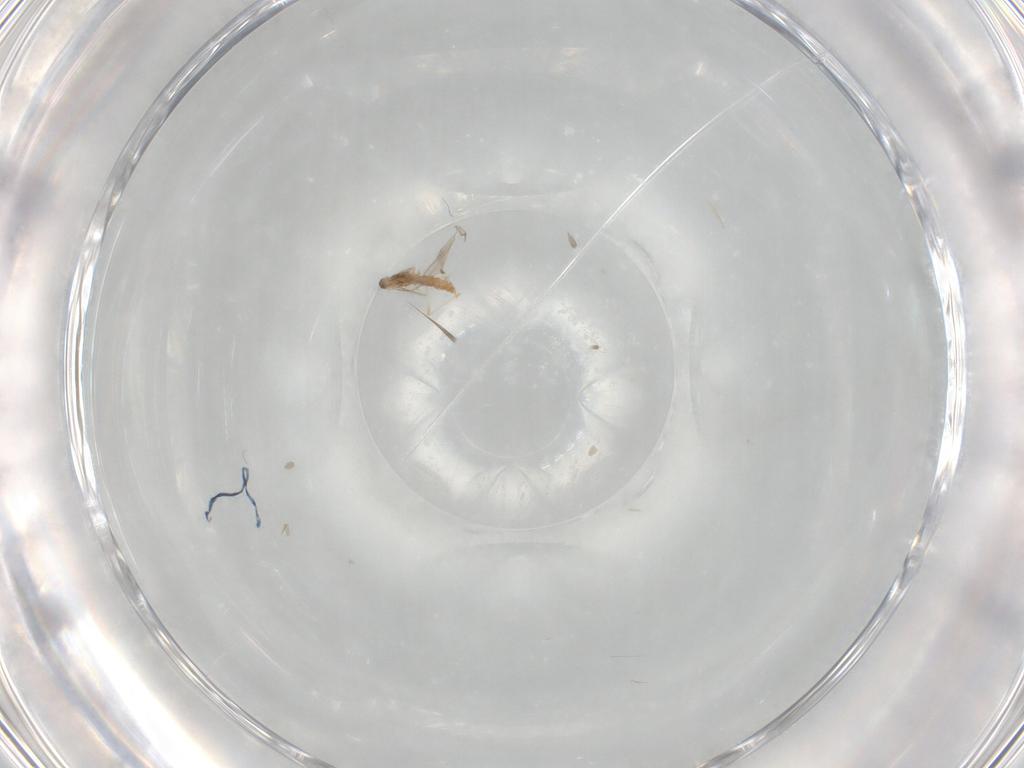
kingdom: Animalia
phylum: Arthropoda
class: Insecta
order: Diptera
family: Cecidomyiidae
